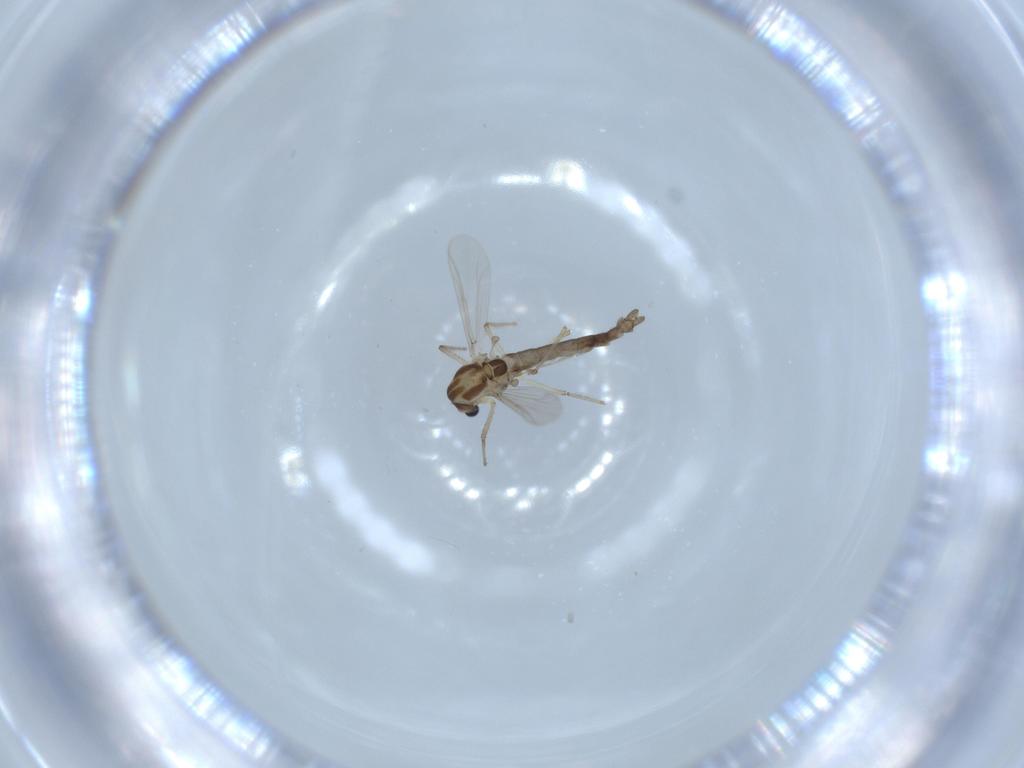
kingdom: Animalia
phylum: Arthropoda
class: Insecta
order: Diptera
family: Chironomidae
